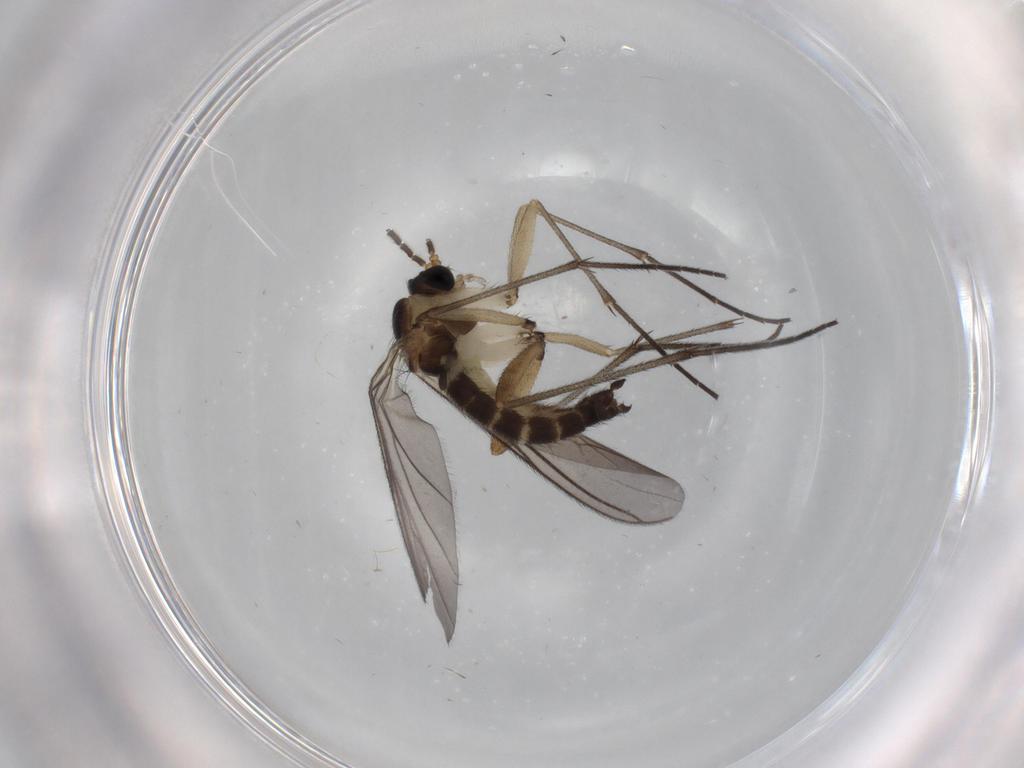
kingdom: Animalia
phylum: Arthropoda
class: Insecta
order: Diptera
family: Sciaridae
